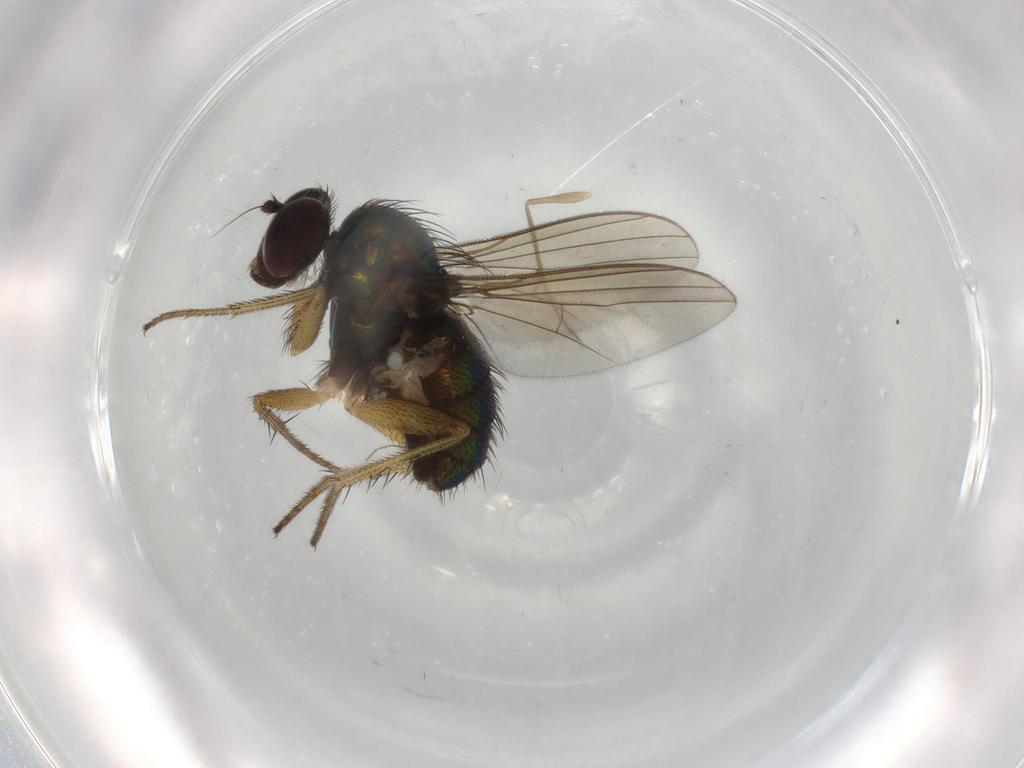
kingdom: Animalia
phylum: Arthropoda
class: Insecta
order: Diptera
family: Dolichopodidae
